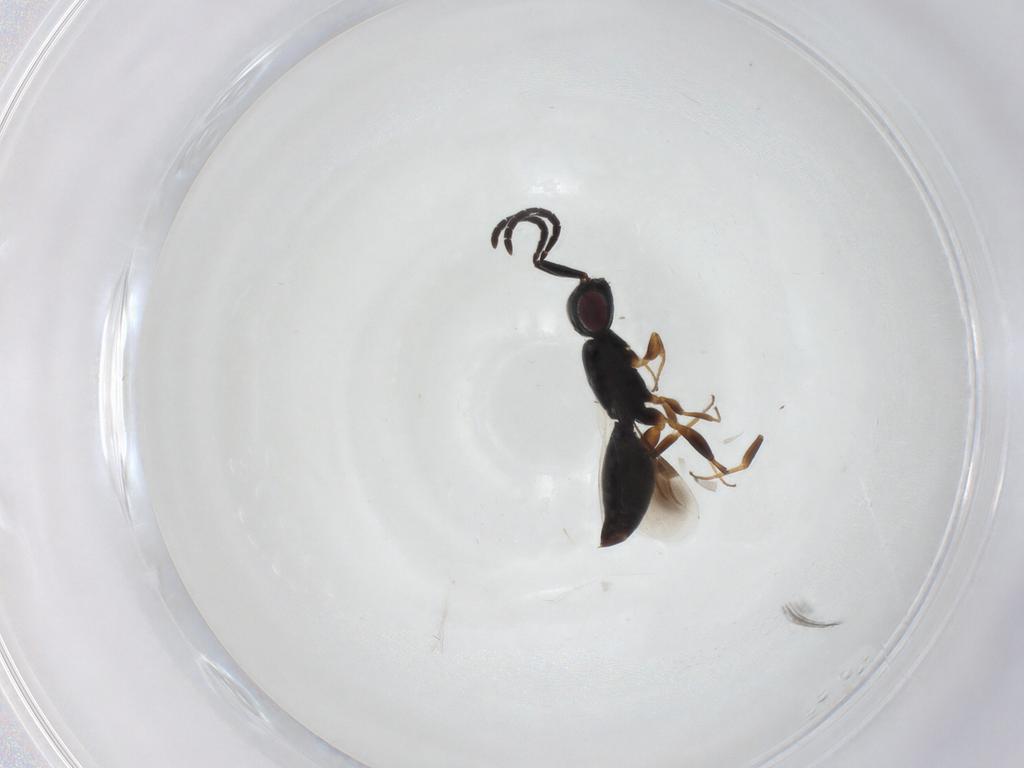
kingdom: Animalia
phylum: Arthropoda
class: Insecta
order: Hymenoptera
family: Megaspilidae
